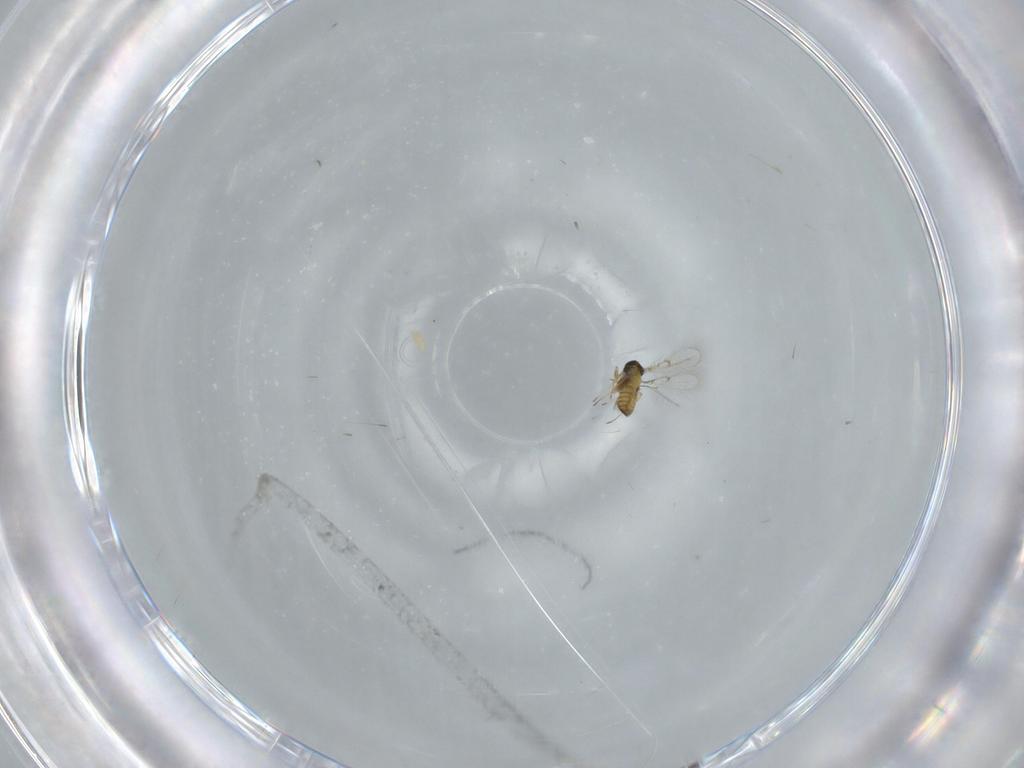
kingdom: Animalia
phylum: Arthropoda
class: Insecta
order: Hymenoptera
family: Trichogrammatidae
